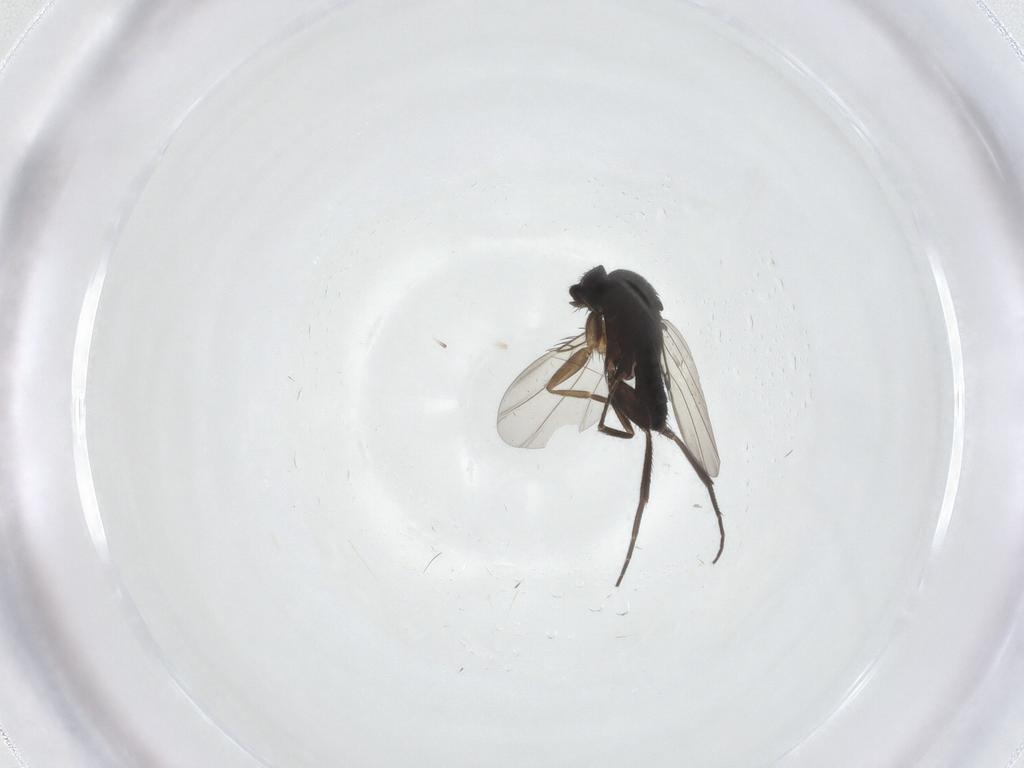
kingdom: Animalia
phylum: Arthropoda
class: Insecta
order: Diptera
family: Phoridae
